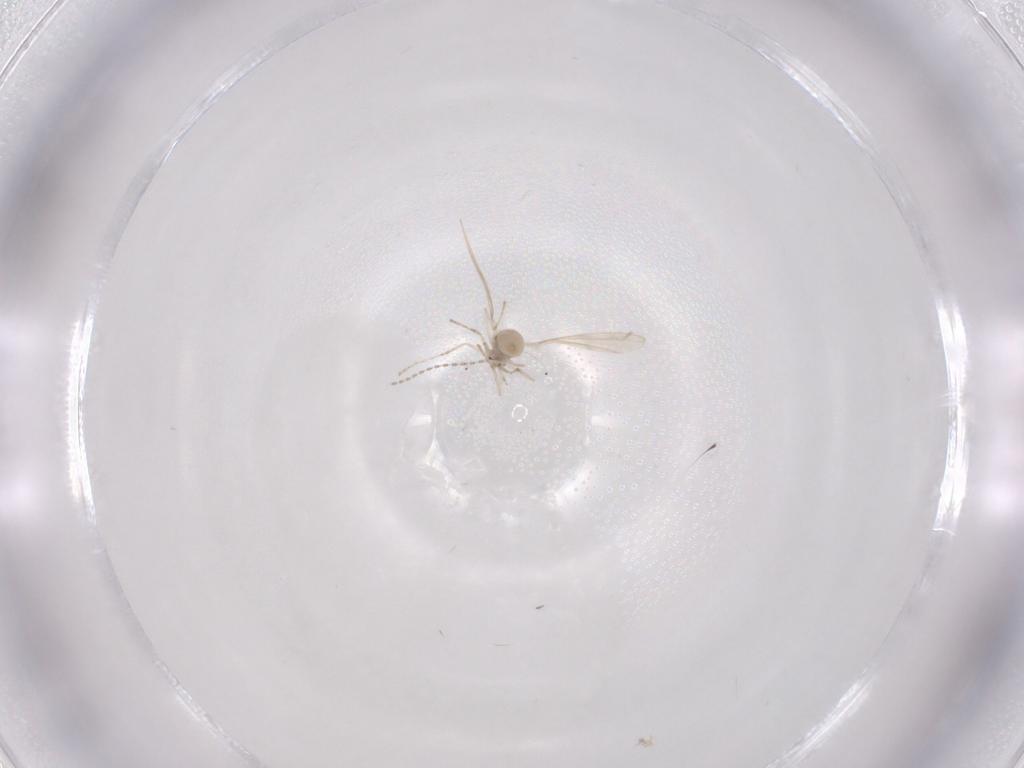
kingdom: Animalia
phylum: Arthropoda
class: Insecta
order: Diptera
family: Cecidomyiidae
